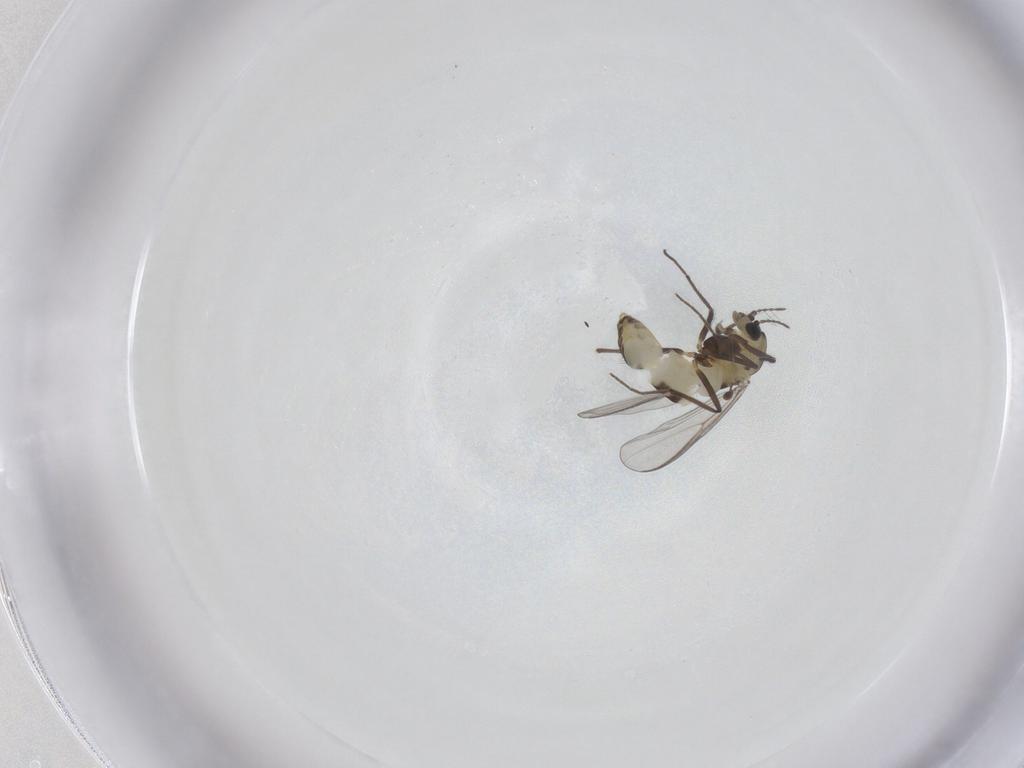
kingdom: Animalia
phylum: Arthropoda
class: Insecta
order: Diptera
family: Chironomidae
